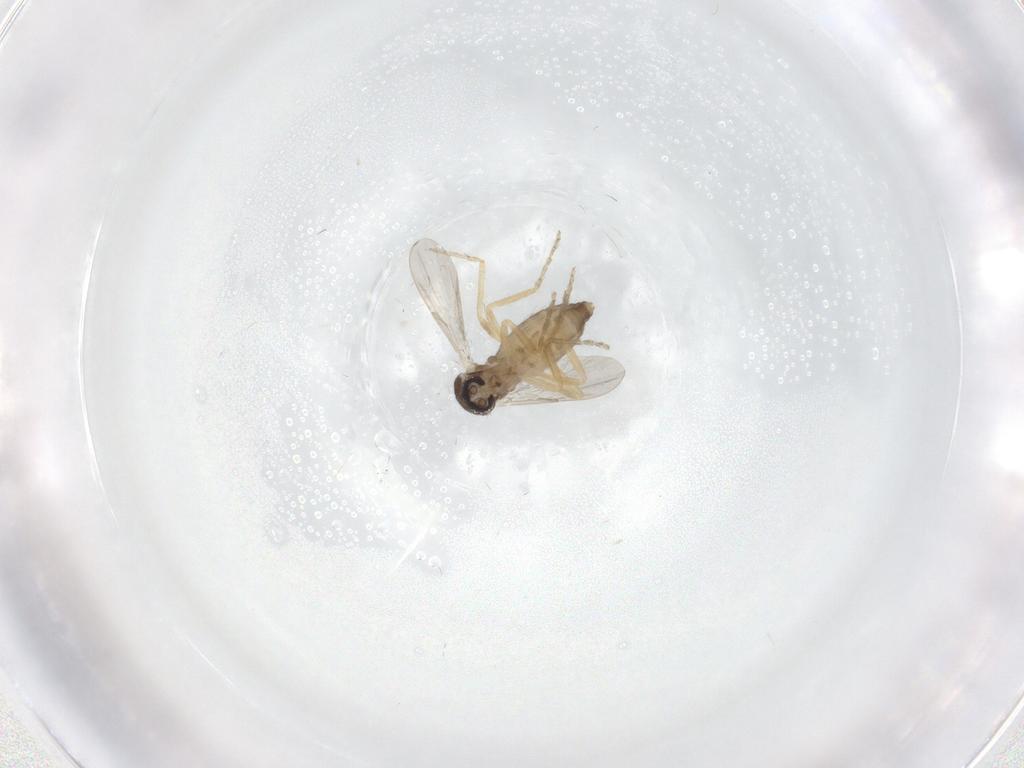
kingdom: Animalia
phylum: Arthropoda
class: Insecta
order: Diptera
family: Ceratopogonidae
